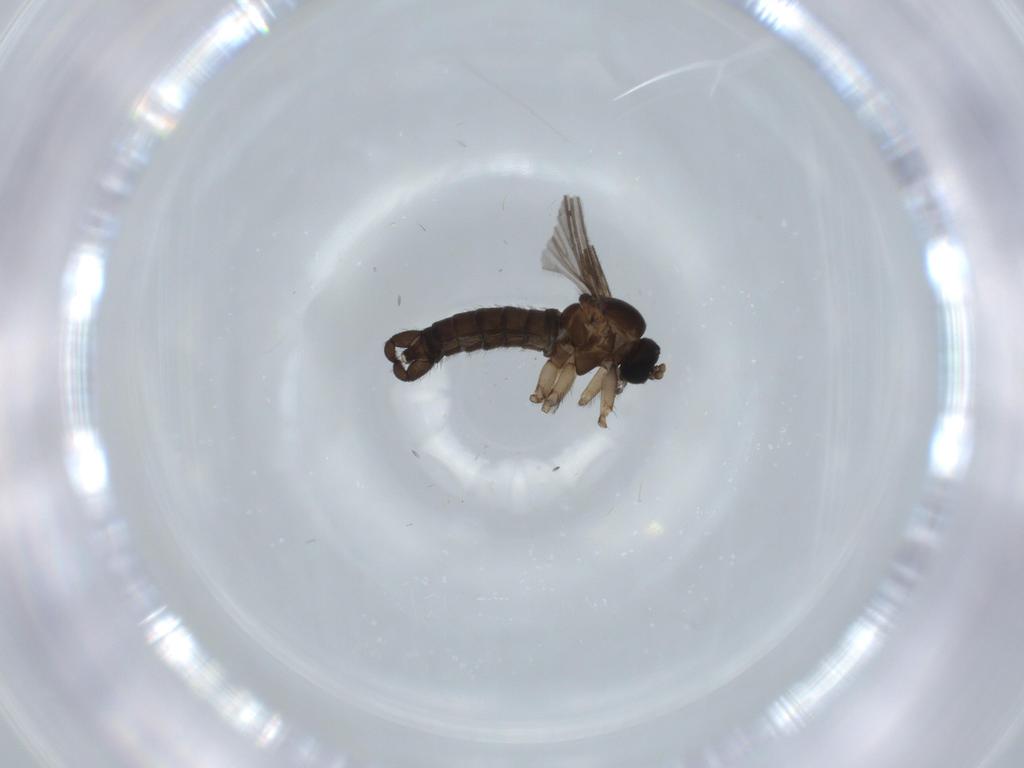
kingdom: Animalia
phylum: Arthropoda
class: Insecta
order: Diptera
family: Sciaridae
